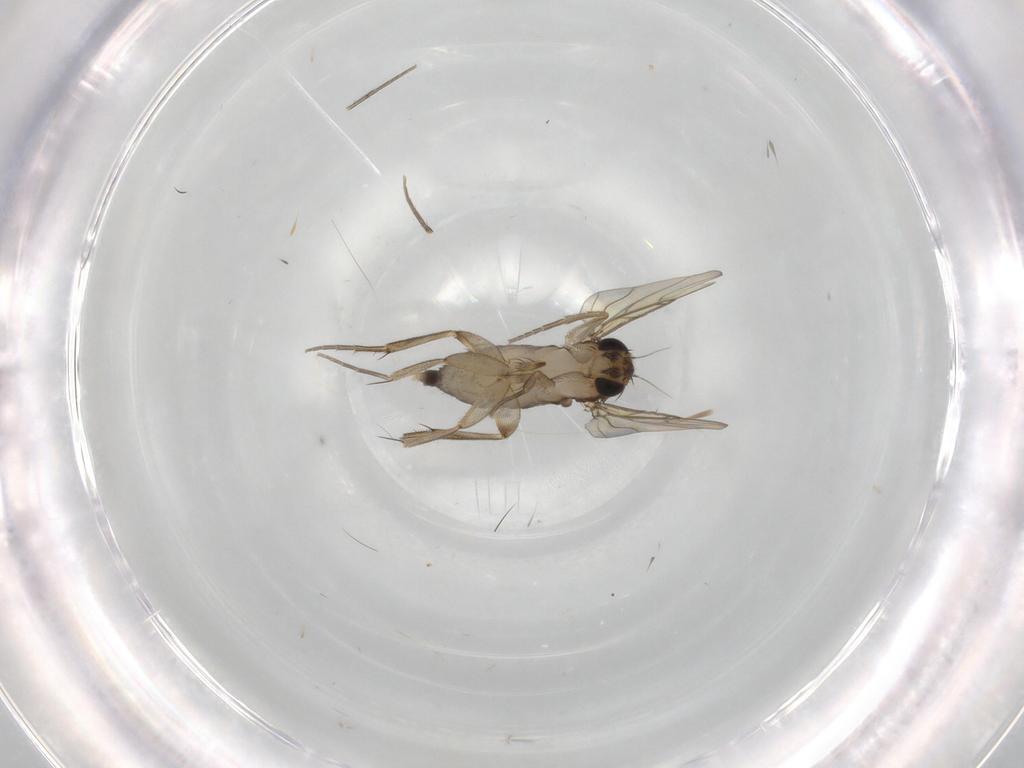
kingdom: Animalia
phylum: Arthropoda
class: Insecta
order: Diptera
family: Phoridae
